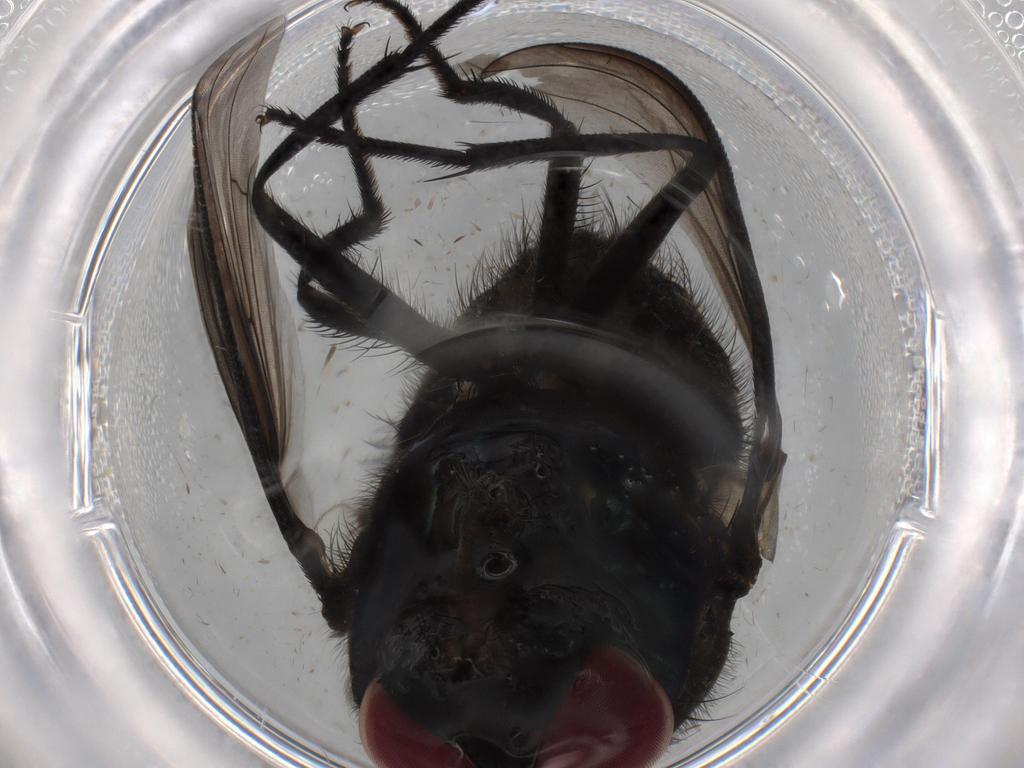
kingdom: Animalia
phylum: Arthropoda
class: Insecta
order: Diptera
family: Muscidae
